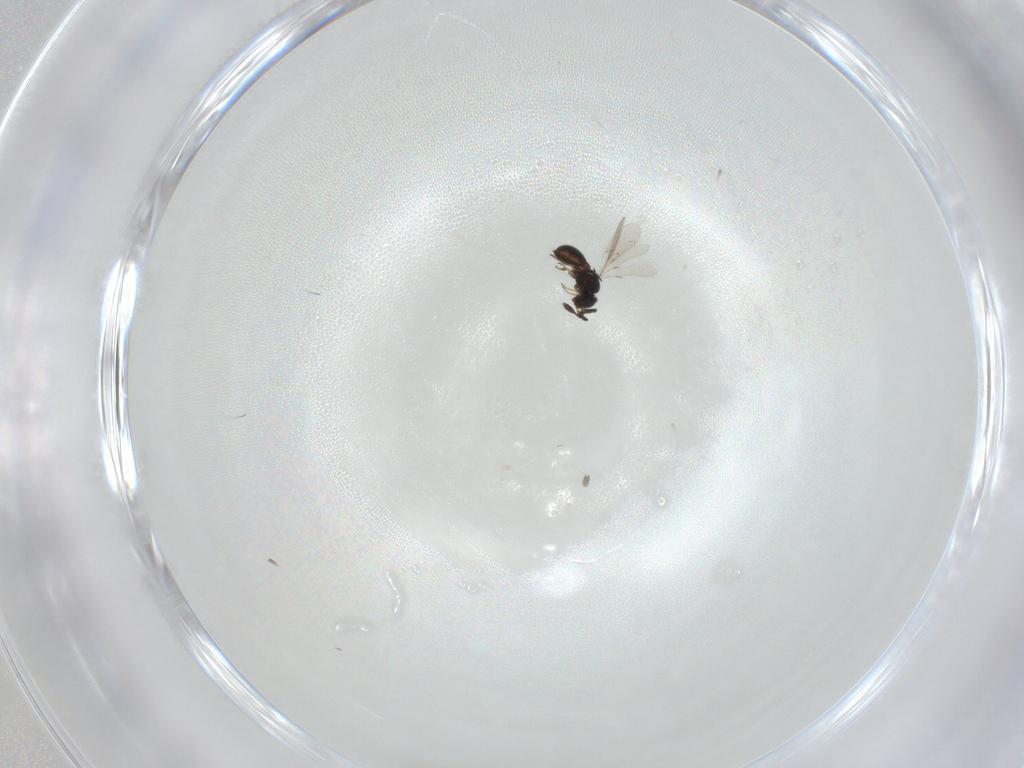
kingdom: Animalia
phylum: Arthropoda
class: Insecta
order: Hymenoptera
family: Scelionidae
